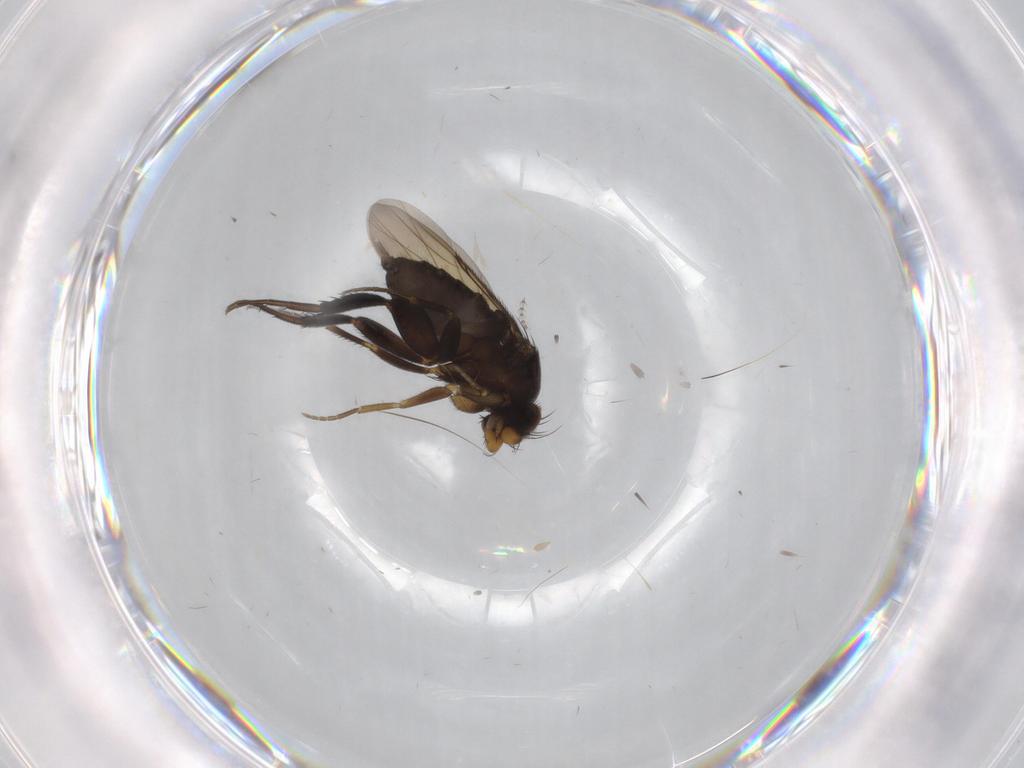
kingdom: Animalia
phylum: Arthropoda
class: Insecta
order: Diptera
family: Phoridae
